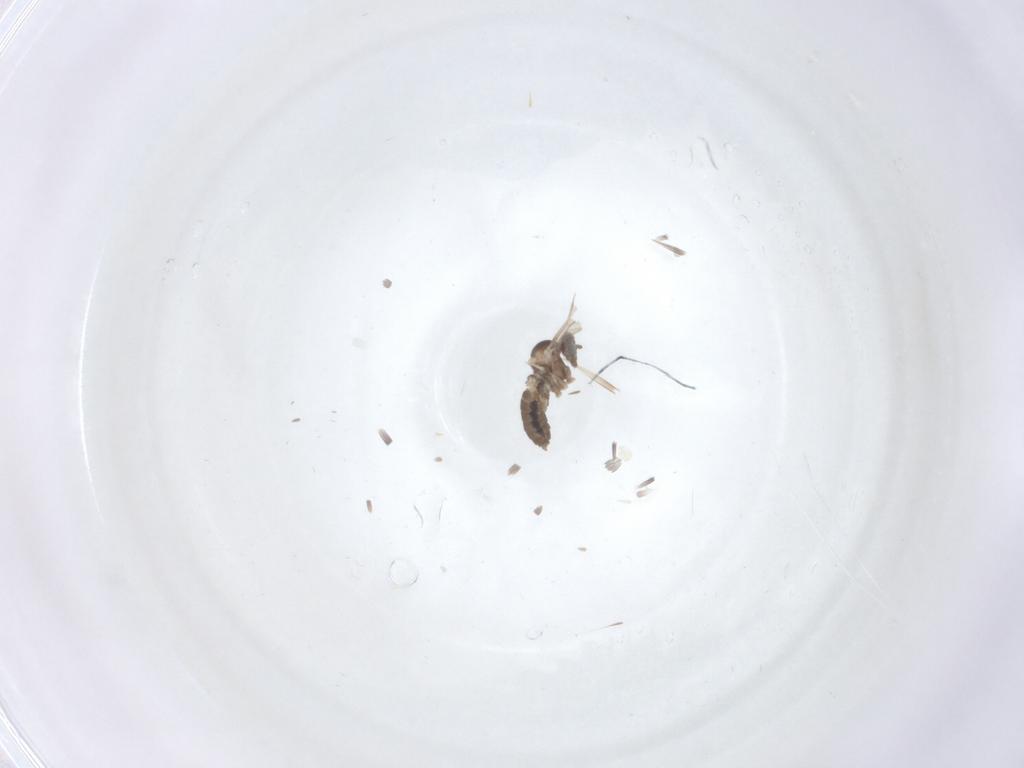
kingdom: Animalia
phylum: Arthropoda
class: Insecta
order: Diptera
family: Cecidomyiidae
